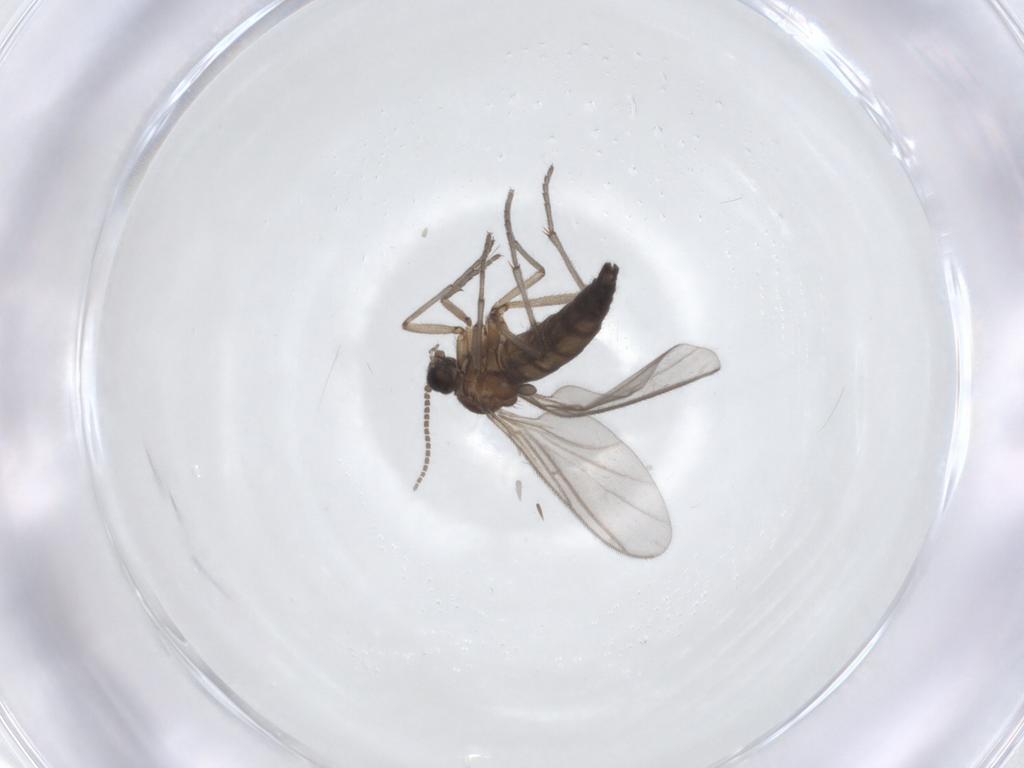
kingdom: Animalia
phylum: Arthropoda
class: Insecta
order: Diptera
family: Sciaridae
